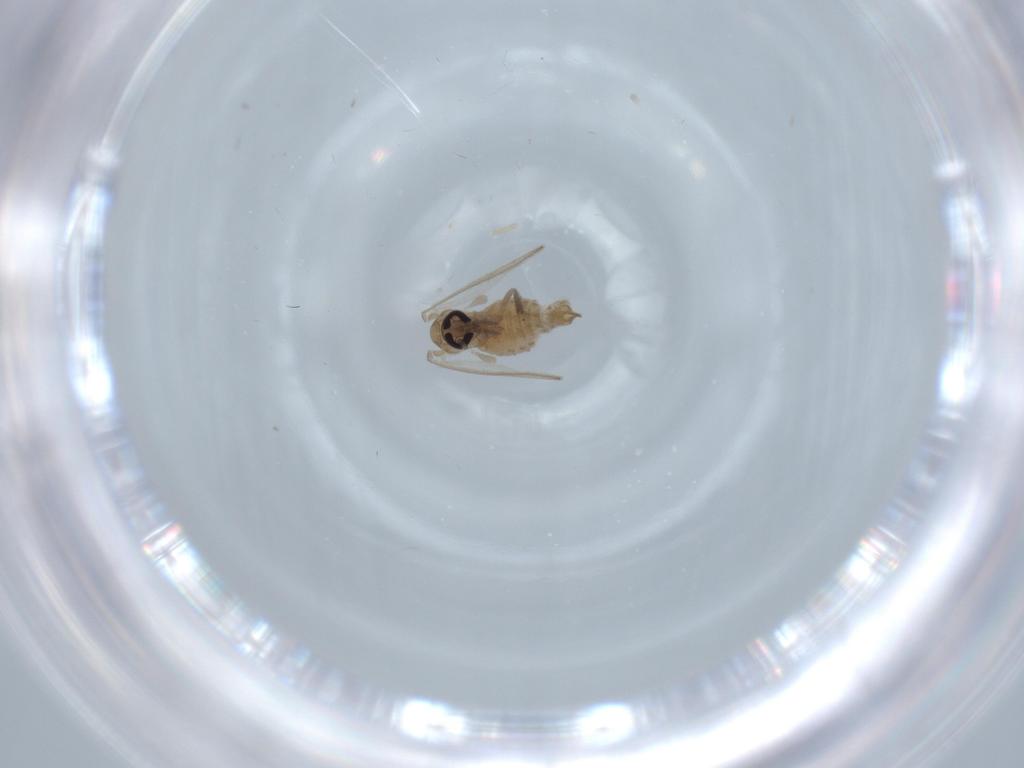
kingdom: Animalia
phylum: Arthropoda
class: Insecta
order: Diptera
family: Psychodidae
